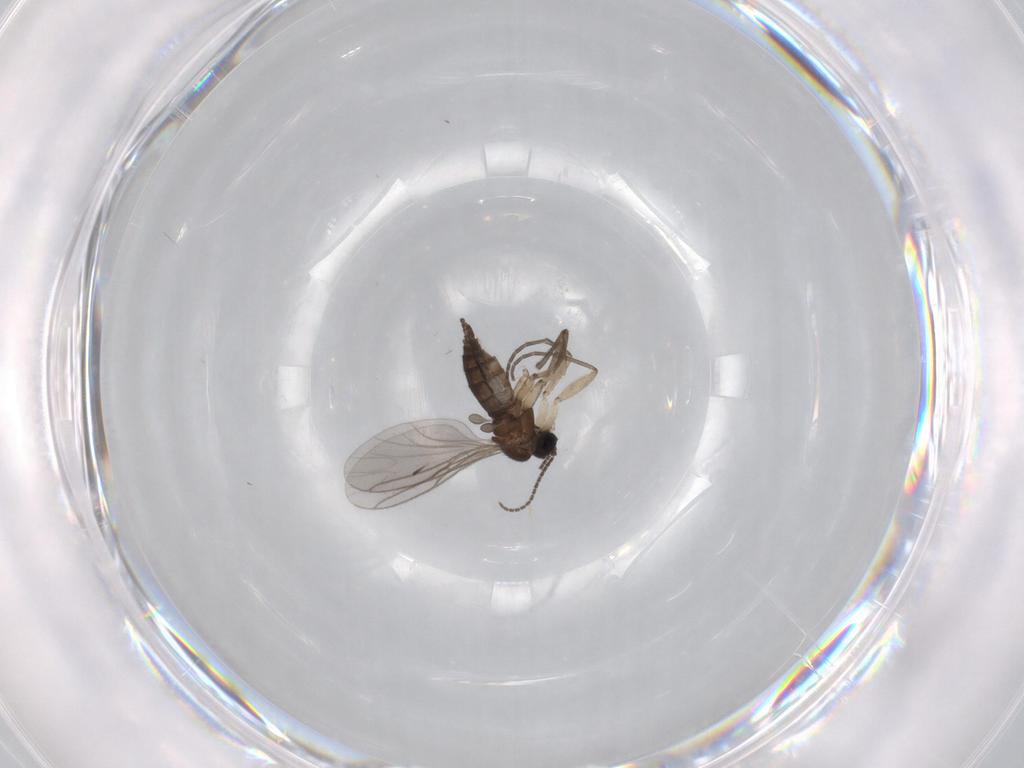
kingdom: Animalia
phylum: Arthropoda
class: Insecta
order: Diptera
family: Sciaridae
